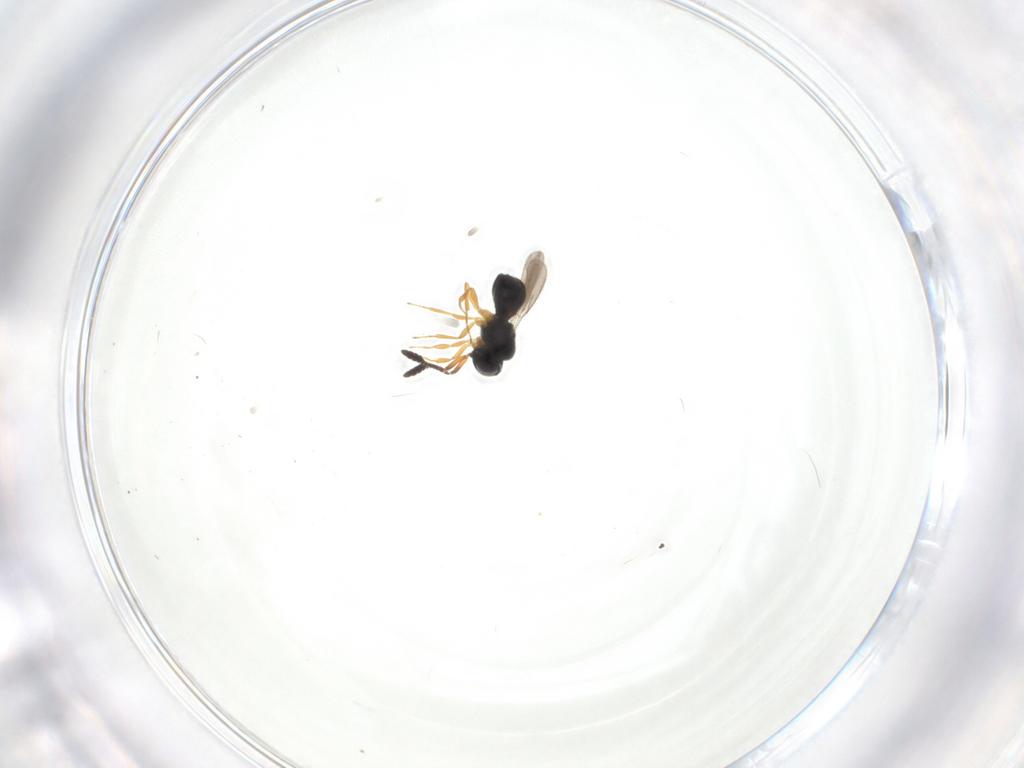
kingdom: Animalia
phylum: Arthropoda
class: Insecta
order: Hymenoptera
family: Scelionidae
